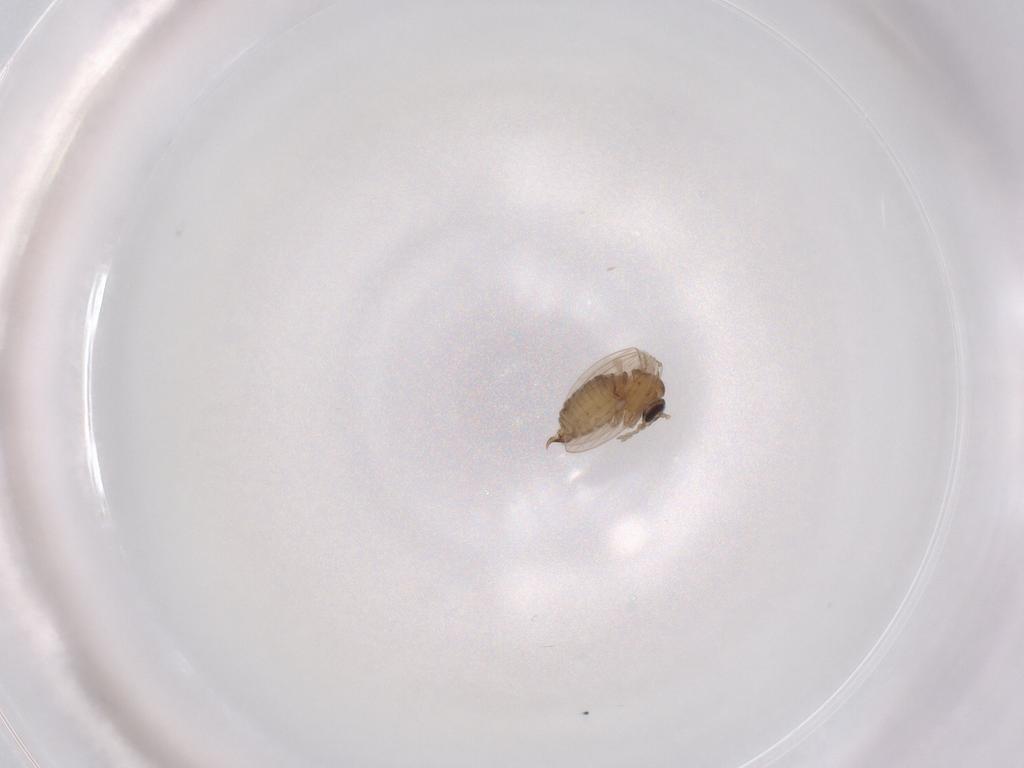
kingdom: Animalia
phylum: Arthropoda
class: Insecta
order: Diptera
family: Psychodidae
